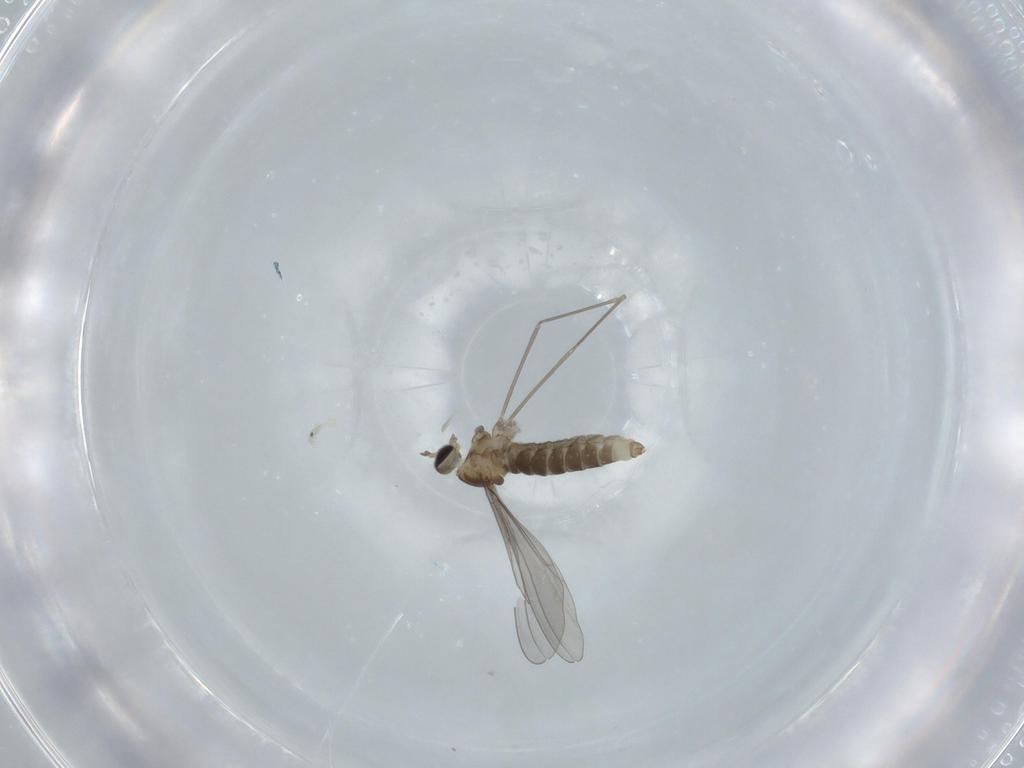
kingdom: Animalia
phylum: Arthropoda
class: Insecta
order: Diptera
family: Cecidomyiidae
